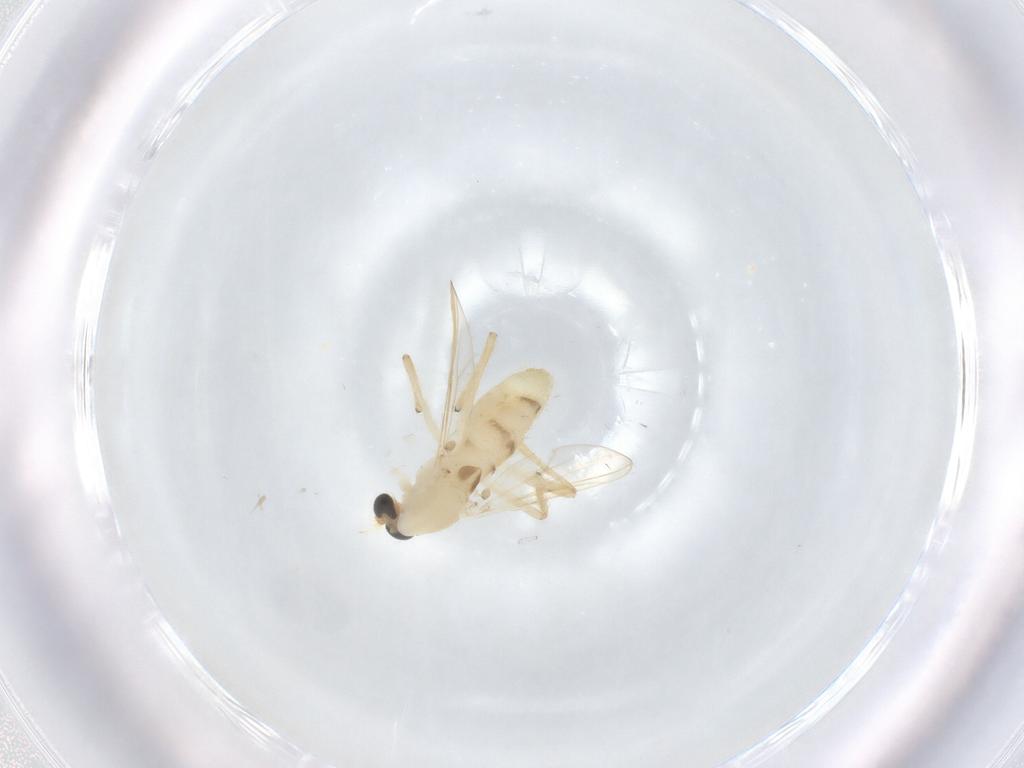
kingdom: Animalia
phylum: Arthropoda
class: Insecta
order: Diptera
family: Chironomidae
